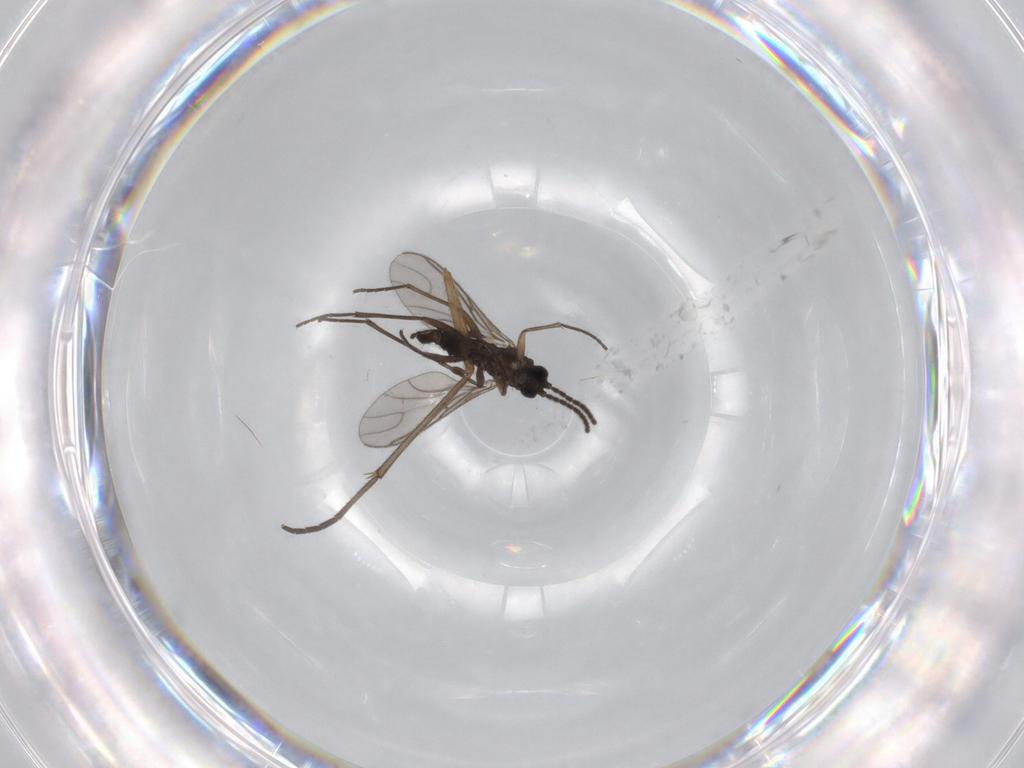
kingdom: Animalia
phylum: Arthropoda
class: Insecta
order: Diptera
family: Sciaridae
